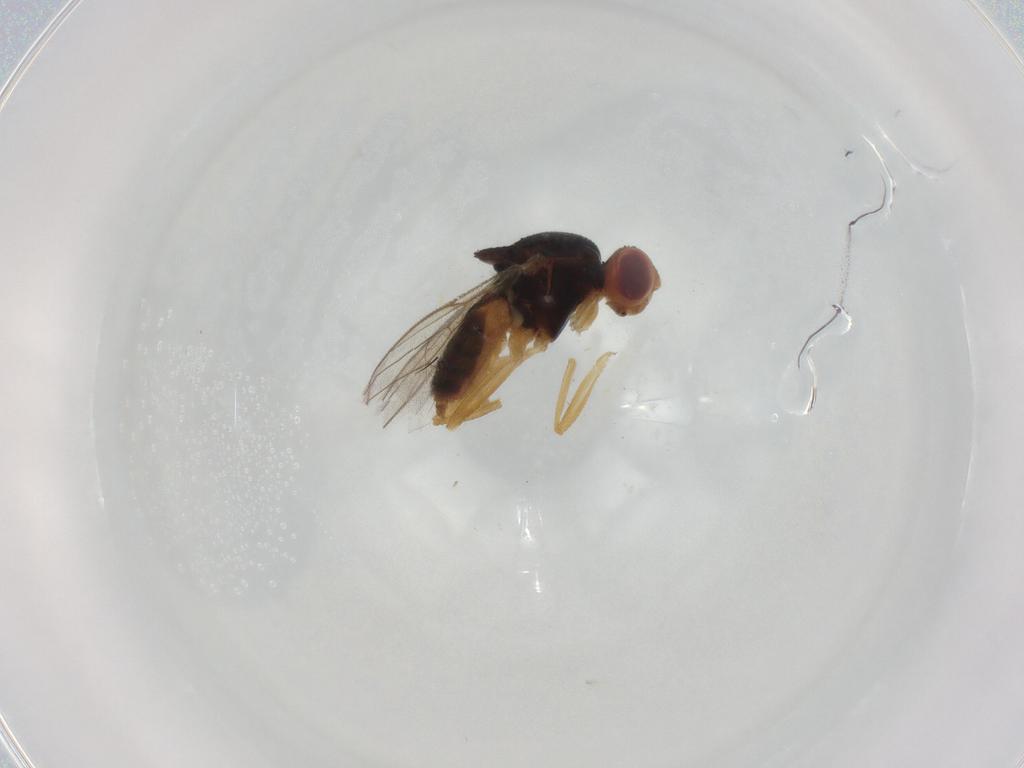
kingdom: Animalia
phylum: Arthropoda
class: Insecta
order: Diptera
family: Chloropidae
